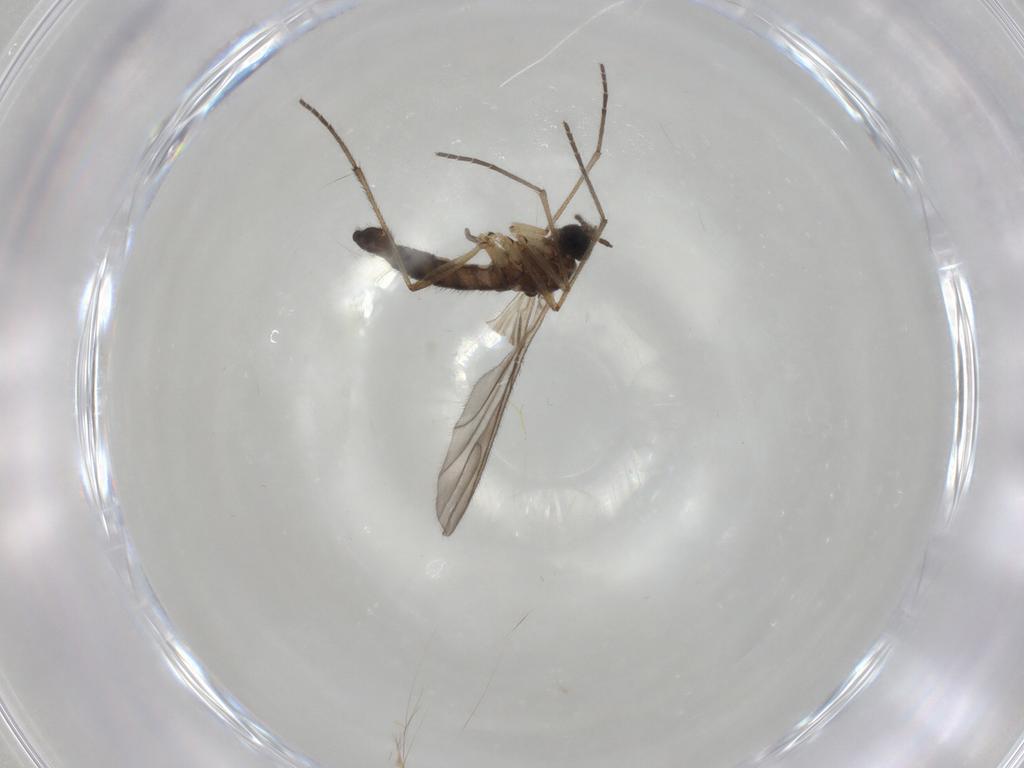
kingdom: Animalia
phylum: Arthropoda
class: Insecta
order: Diptera
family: Sciaridae
